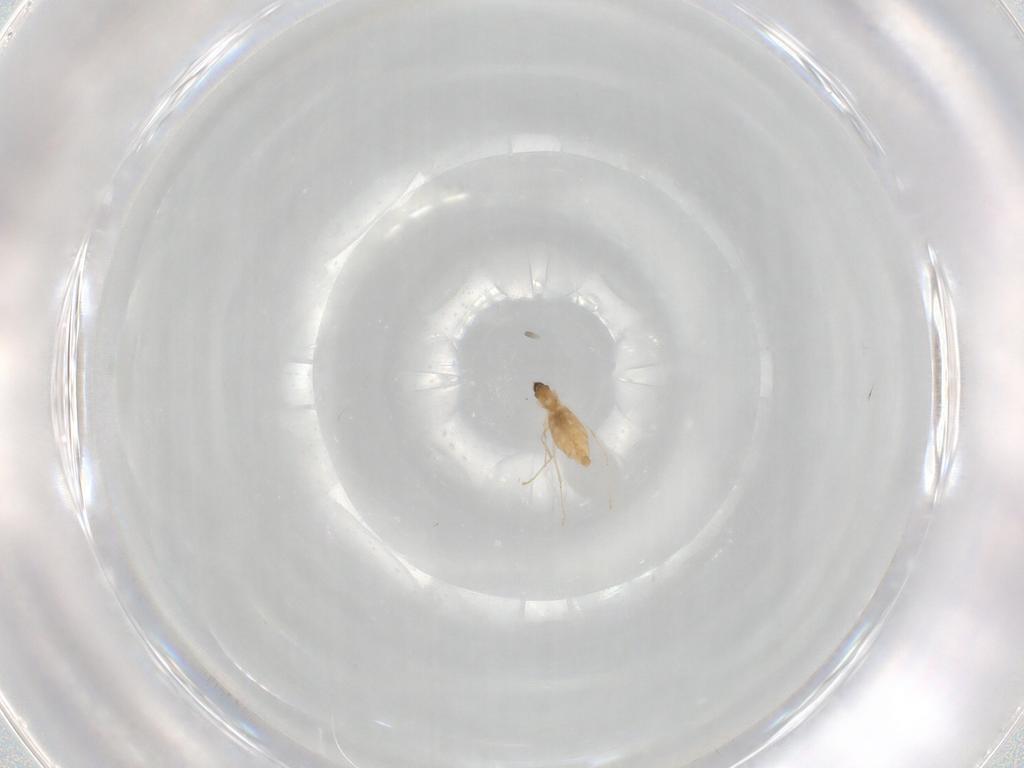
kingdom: Animalia
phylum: Arthropoda
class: Insecta
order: Diptera
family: Cecidomyiidae
